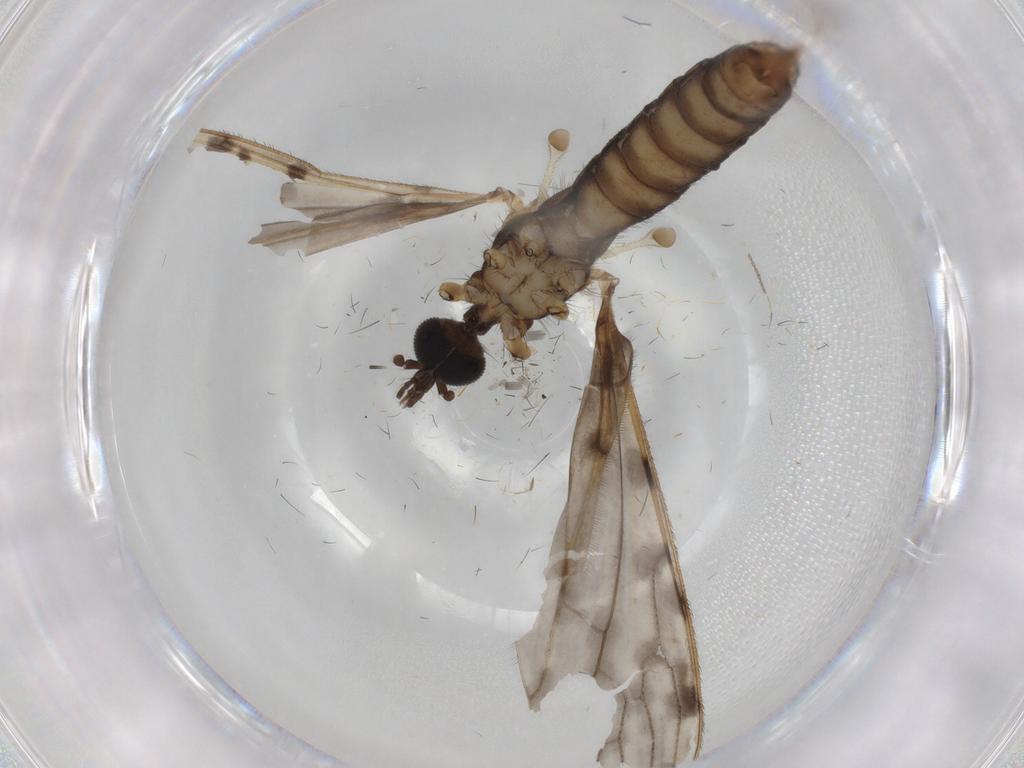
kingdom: Animalia
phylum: Arthropoda
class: Insecta
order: Diptera
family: Limoniidae
